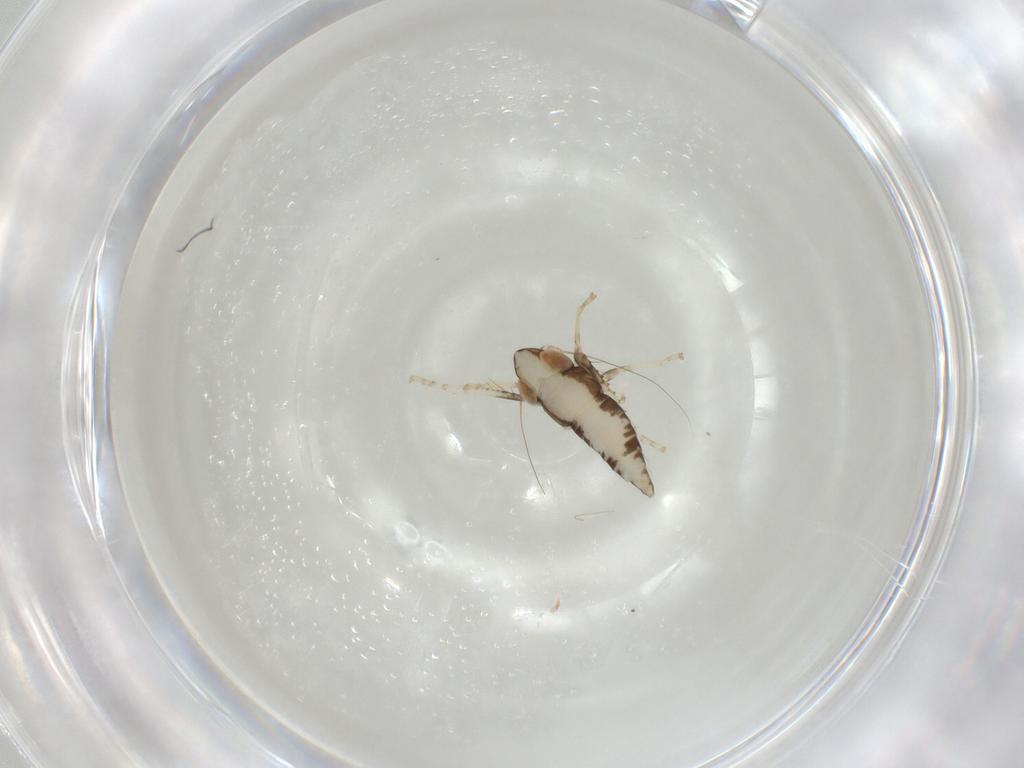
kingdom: Animalia
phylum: Arthropoda
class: Insecta
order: Hemiptera
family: Cicadellidae
